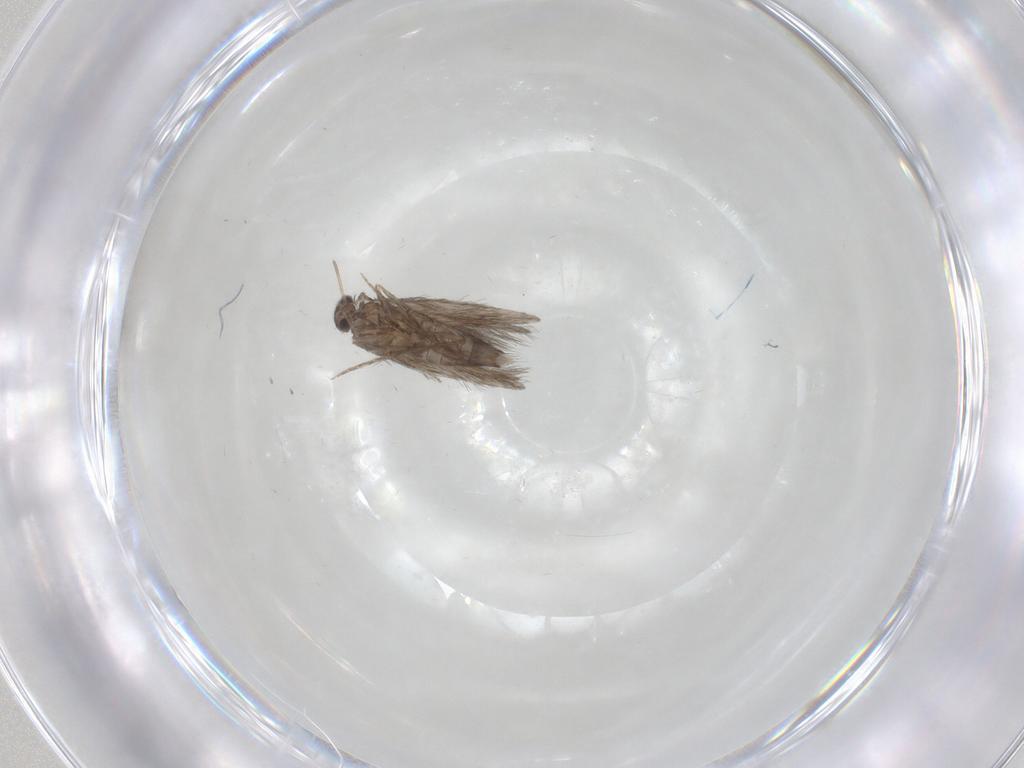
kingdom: Animalia
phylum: Arthropoda
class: Insecta
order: Trichoptera
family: Hydroptilidae
